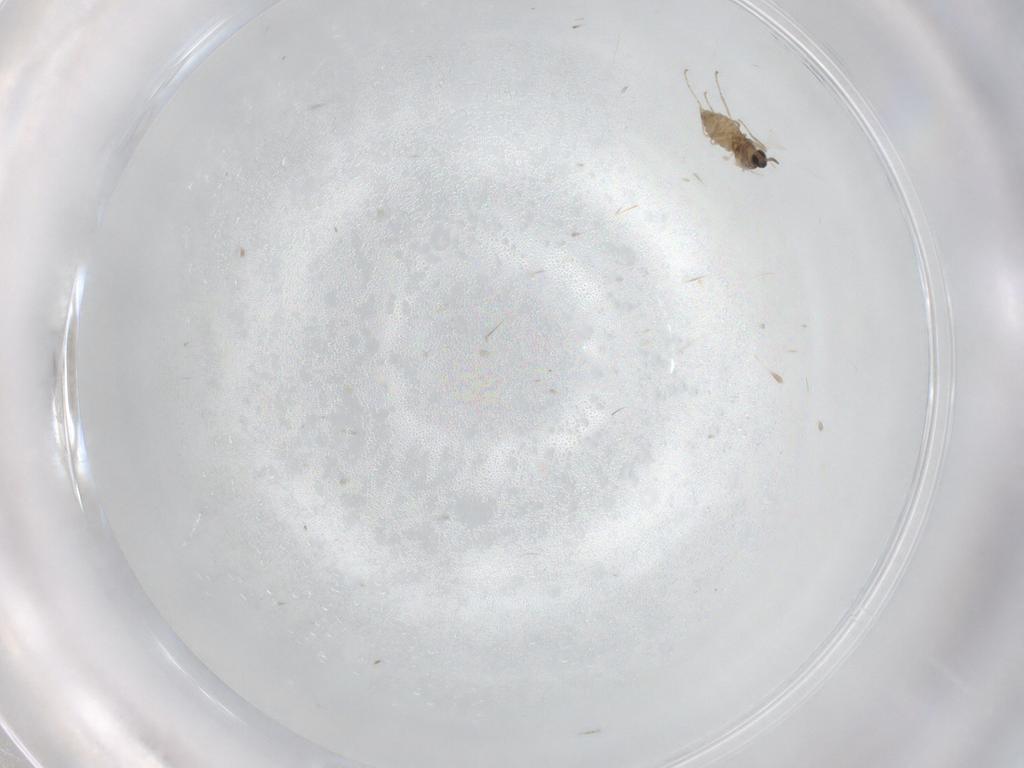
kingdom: Animalia
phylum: Arthropoda
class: Insecta
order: Diptera
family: Cecidomyiidae
